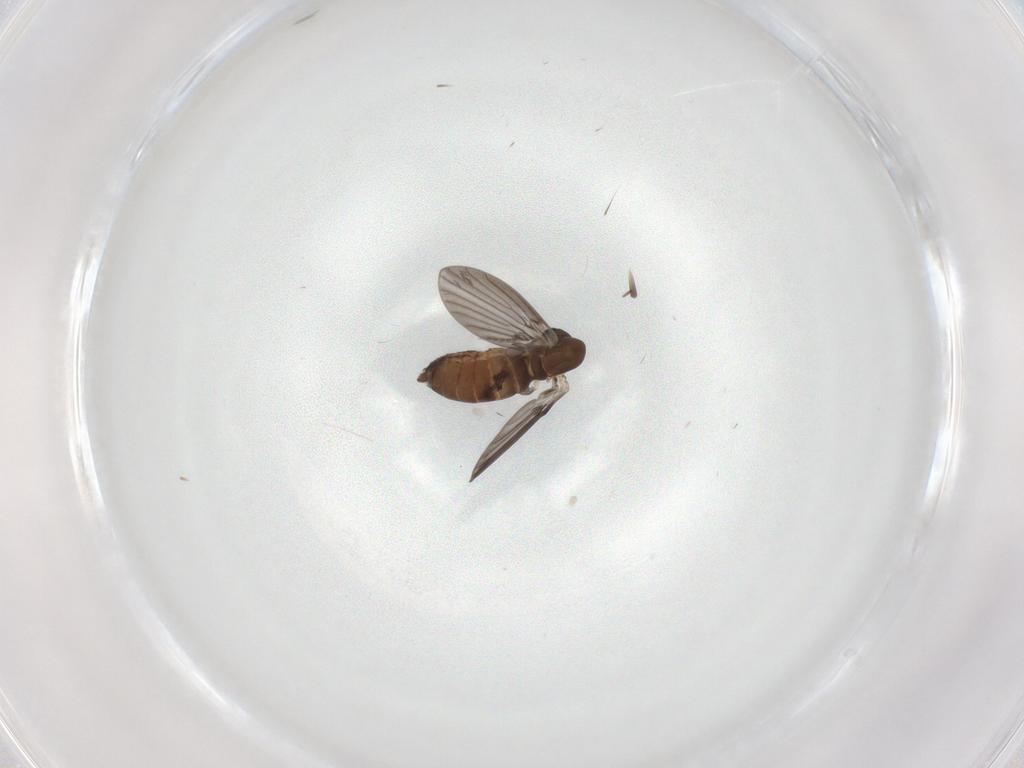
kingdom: Animalia
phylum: Arthropoda
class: Insecta
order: Diptera
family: Muscidae
